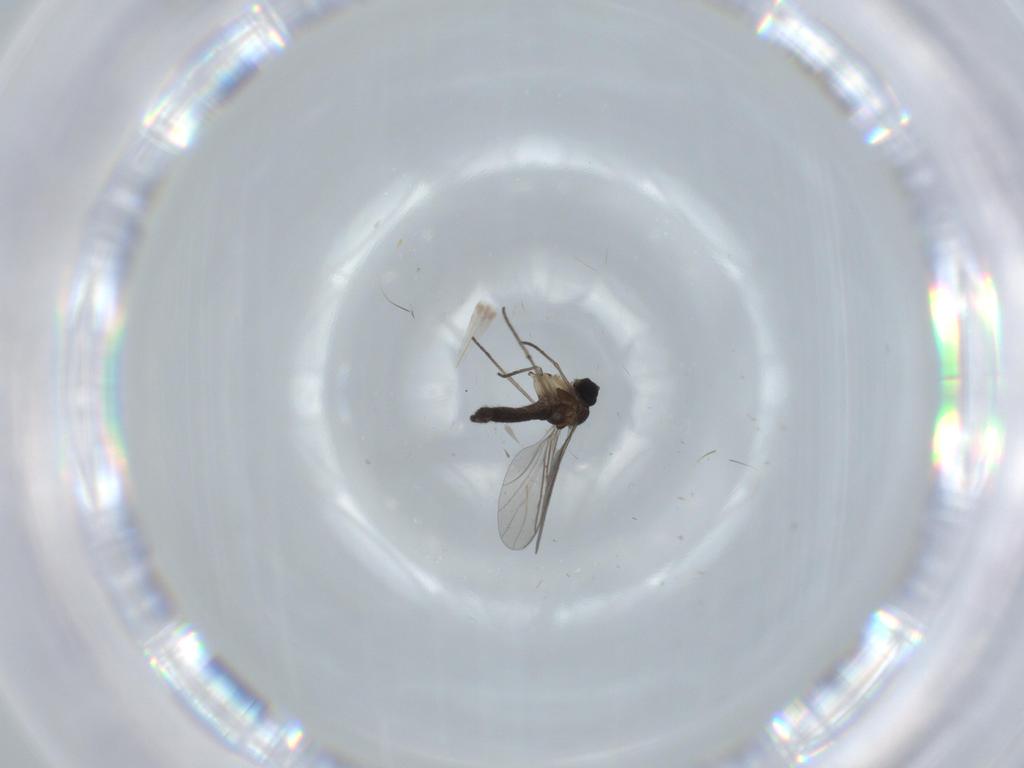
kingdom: Animalia
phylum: Arthropoda
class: Insecta
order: Diptera
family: Sciaridae
